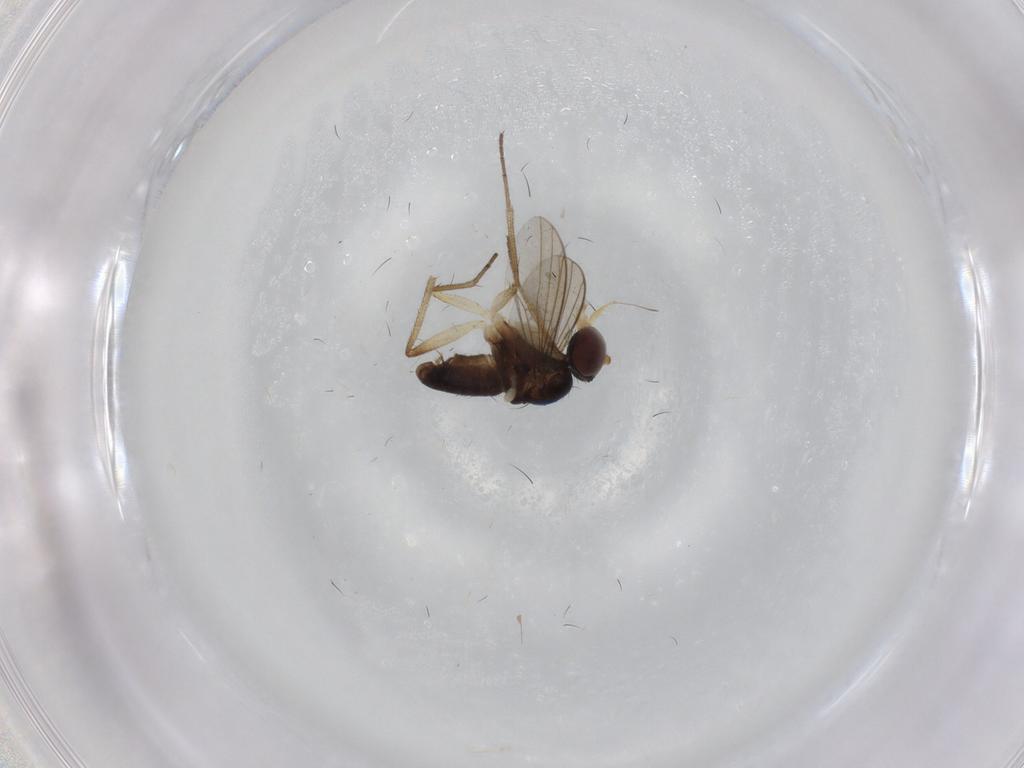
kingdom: Animalia
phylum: Arthropoda
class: Insecta
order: Diptera
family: Dolichopodidae
